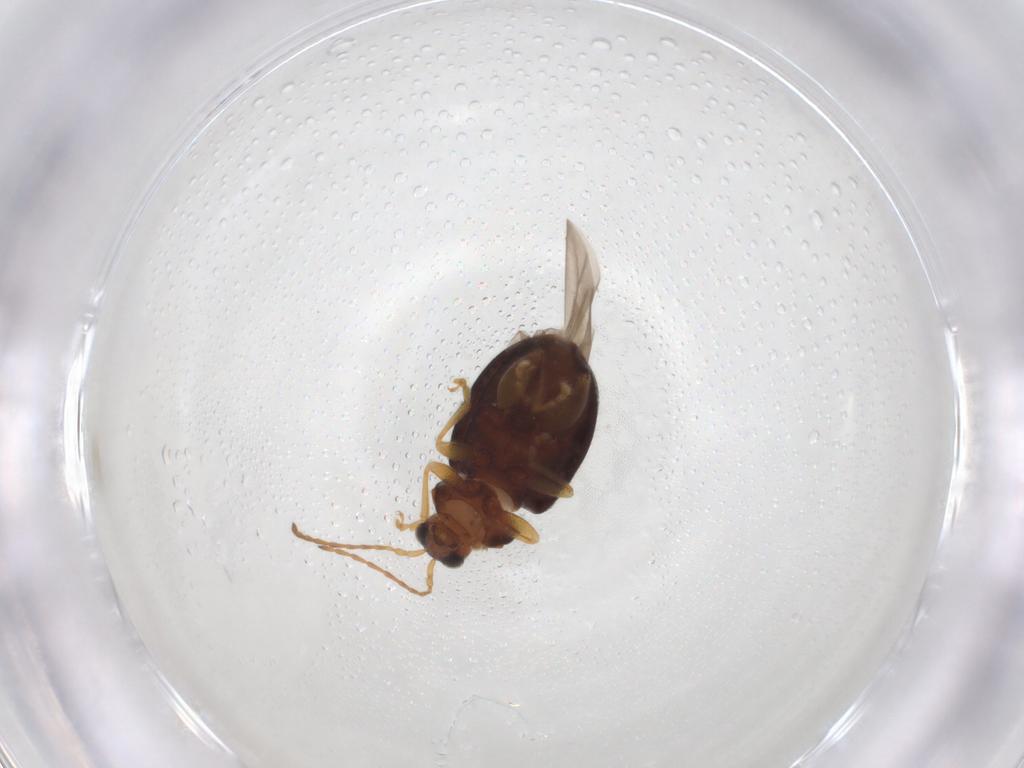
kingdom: Animalia
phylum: Arthropoda
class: Insecta
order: Coleoptera
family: Chrysomelidae
